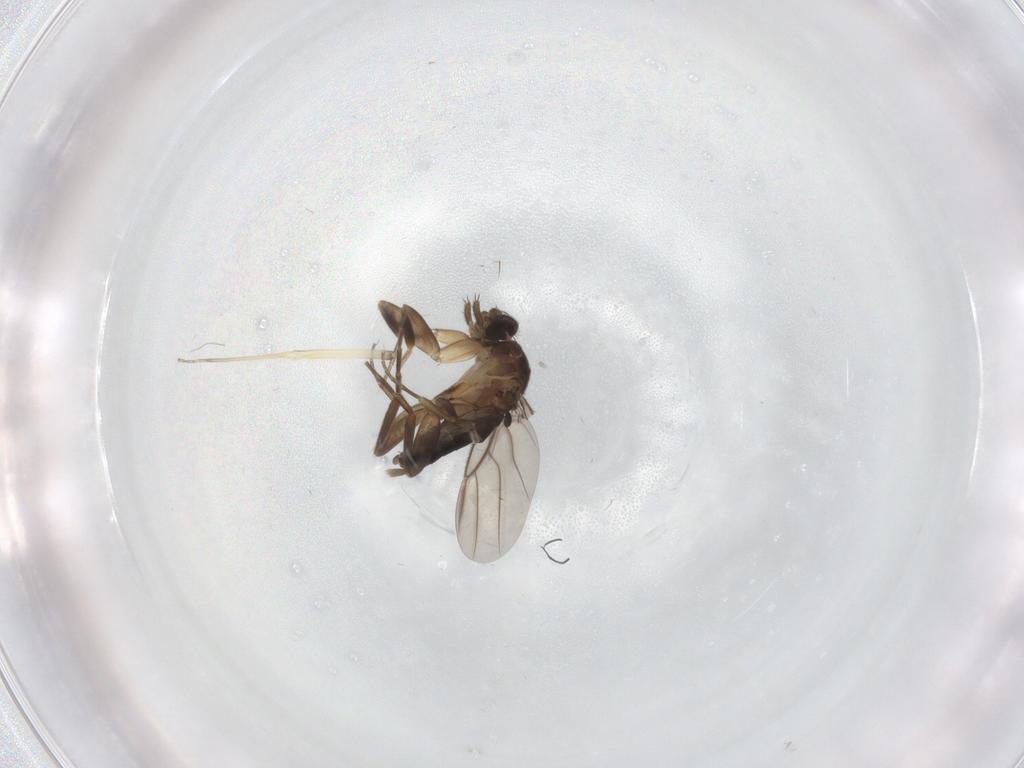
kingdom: Animalia
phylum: Arthropoda
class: Insecta
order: Diptera
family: Phoridae
